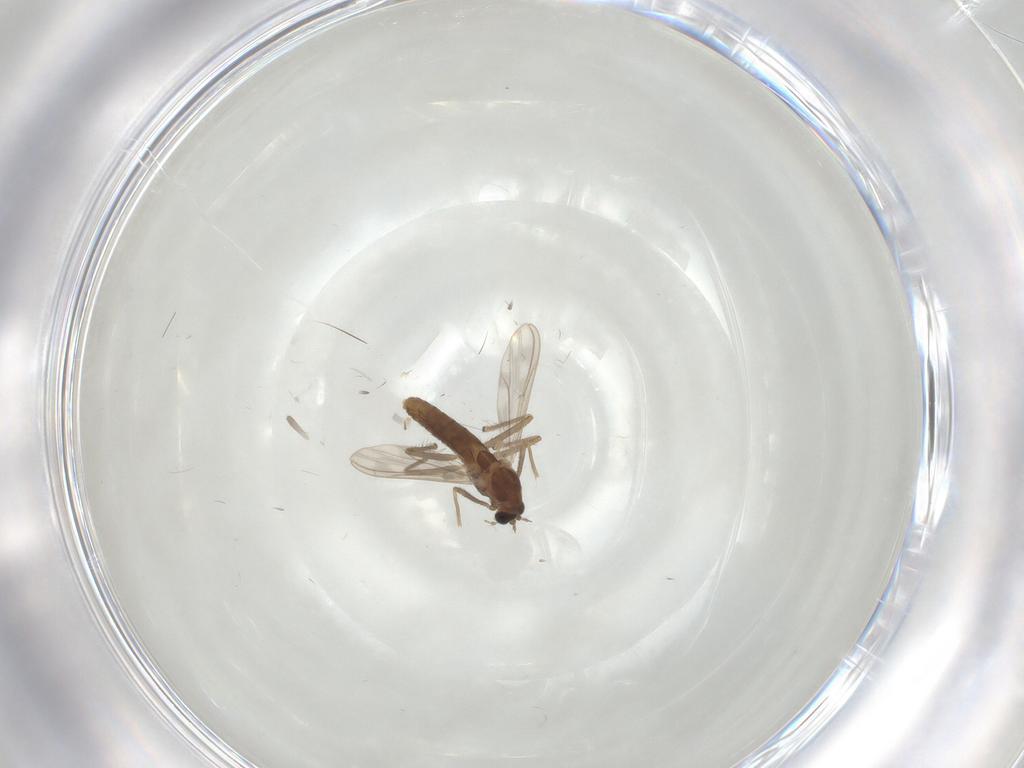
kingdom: Animalia
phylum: Arthropoda
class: Insecta
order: Diptera
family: Chironomidae
